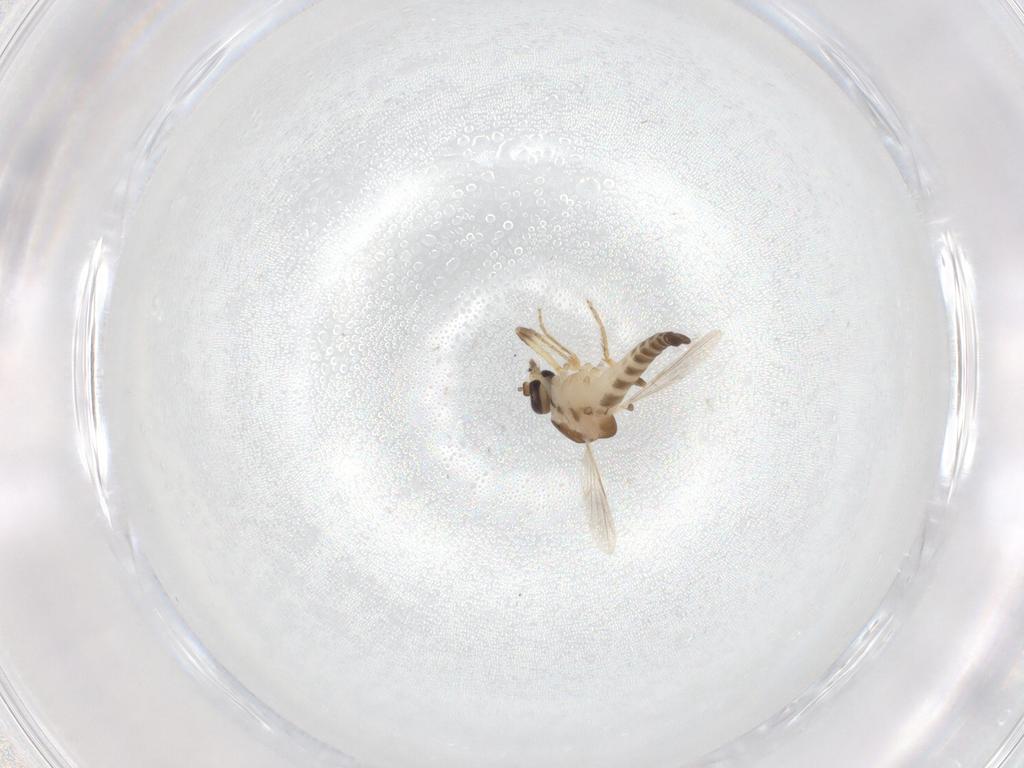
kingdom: Animalia
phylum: Arthropoda
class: Insecta
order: Diptera
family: Ceratopogonidae
